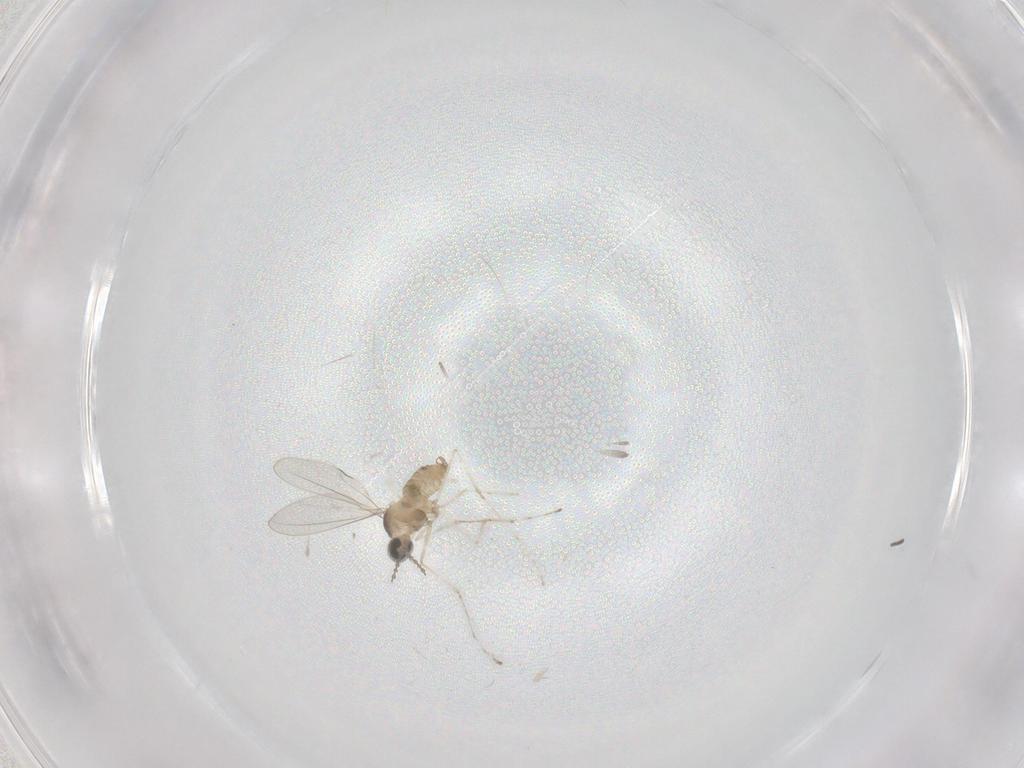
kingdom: Animalia
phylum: Arthropoda
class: Insecta
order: Diptera
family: Cecidomyiidae
